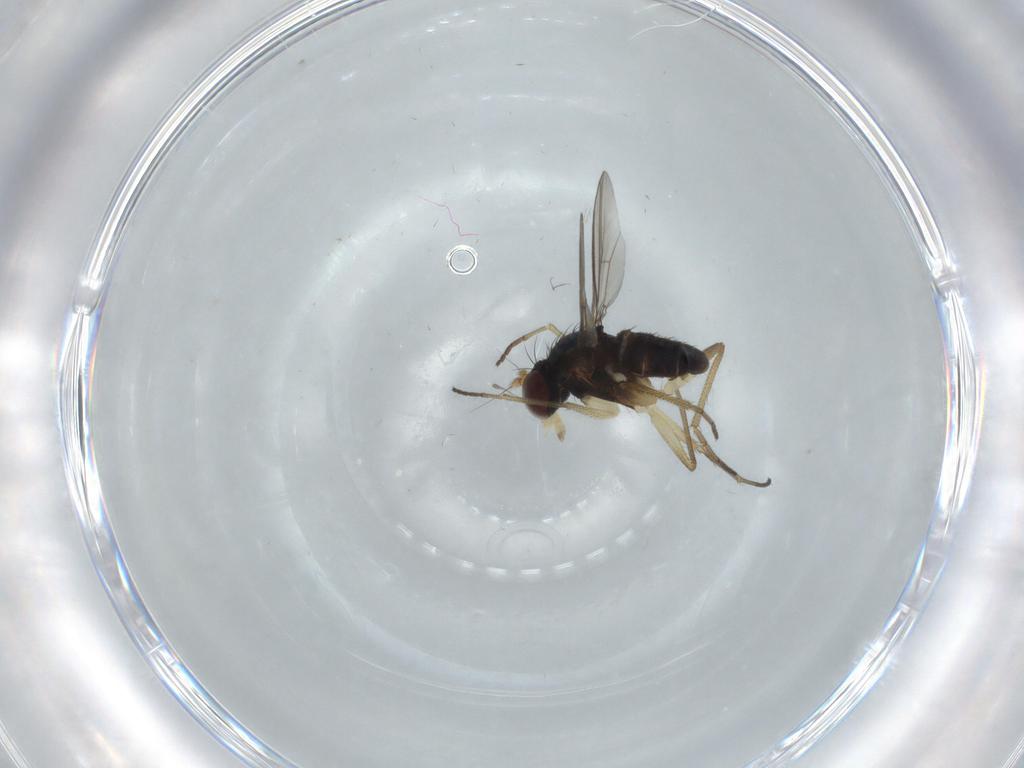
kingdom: Animalia
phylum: Arthropoda
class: Insecta
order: Diptera
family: Dolichopodidae
